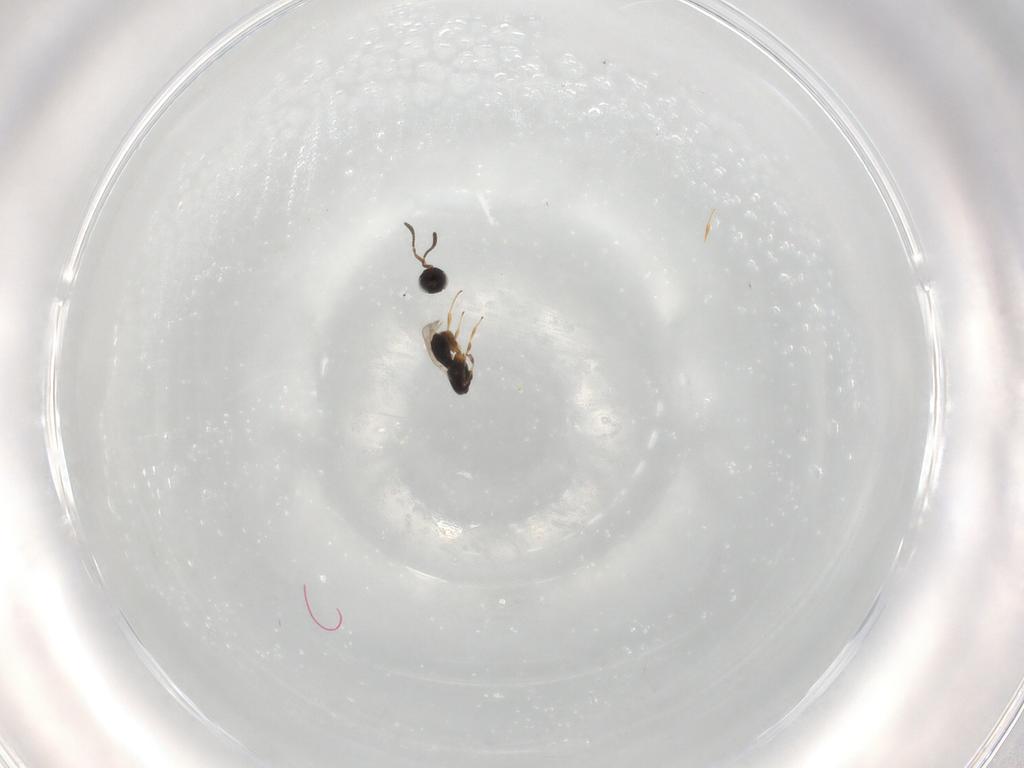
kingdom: Animalia
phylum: Arthropoda
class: Insecta
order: Hymenoptera
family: Scelionidae
